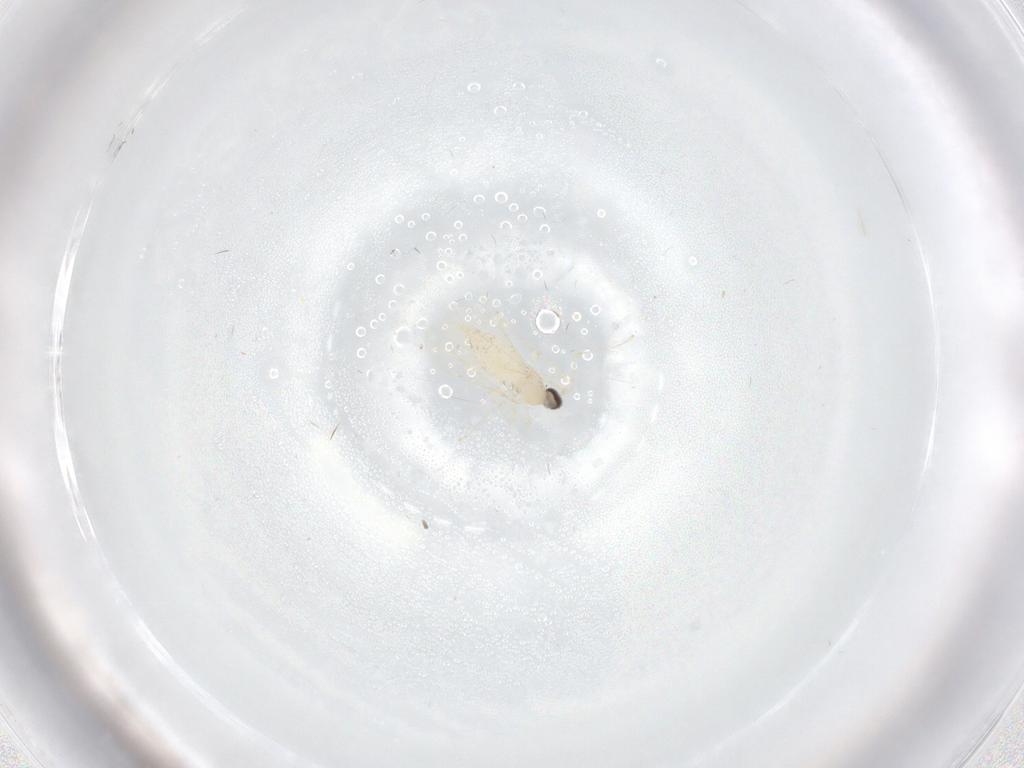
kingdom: Animalia
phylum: Arthropoda
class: Insecta
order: Diptera
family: Cecidomyiidae
